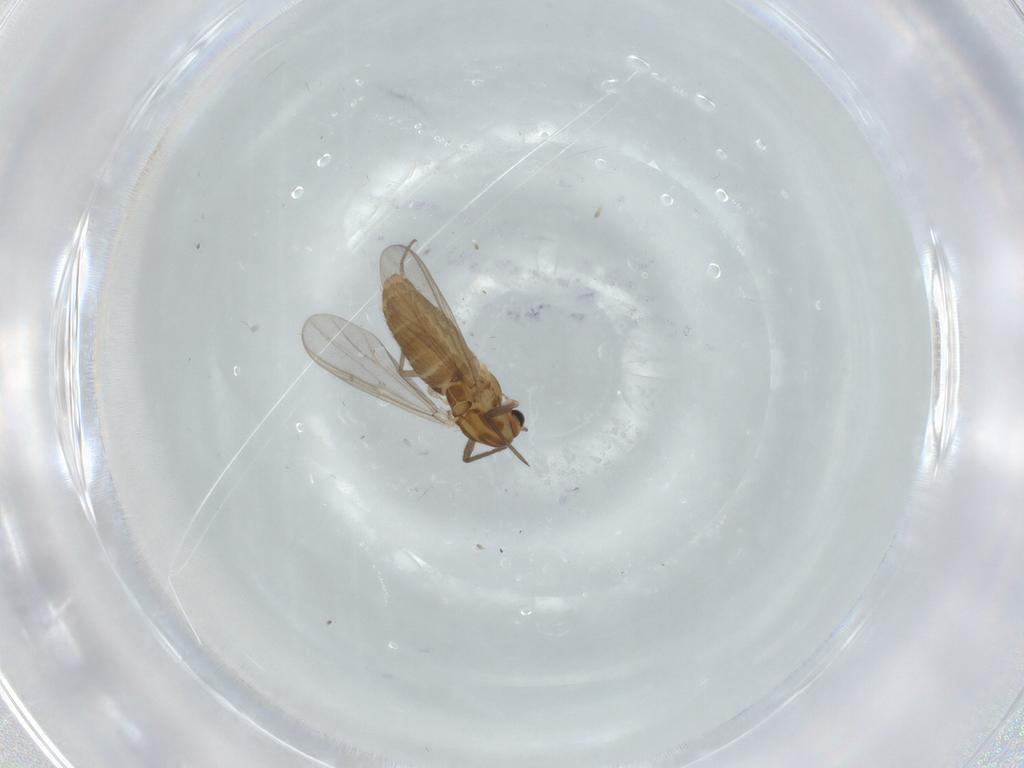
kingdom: Animalia
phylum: Arthropoda
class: Insecta
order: Diptera
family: Chironomidae
